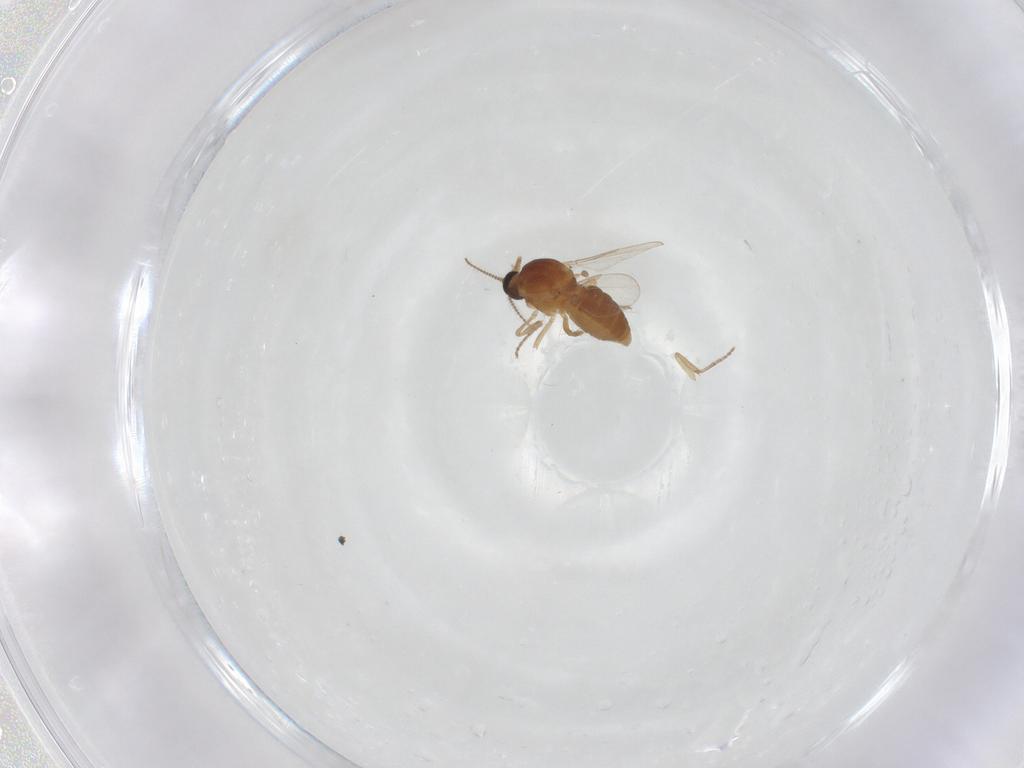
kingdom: Animalia
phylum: Arthropoda
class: Insecta
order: Diptera
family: Ceratopogonidae
